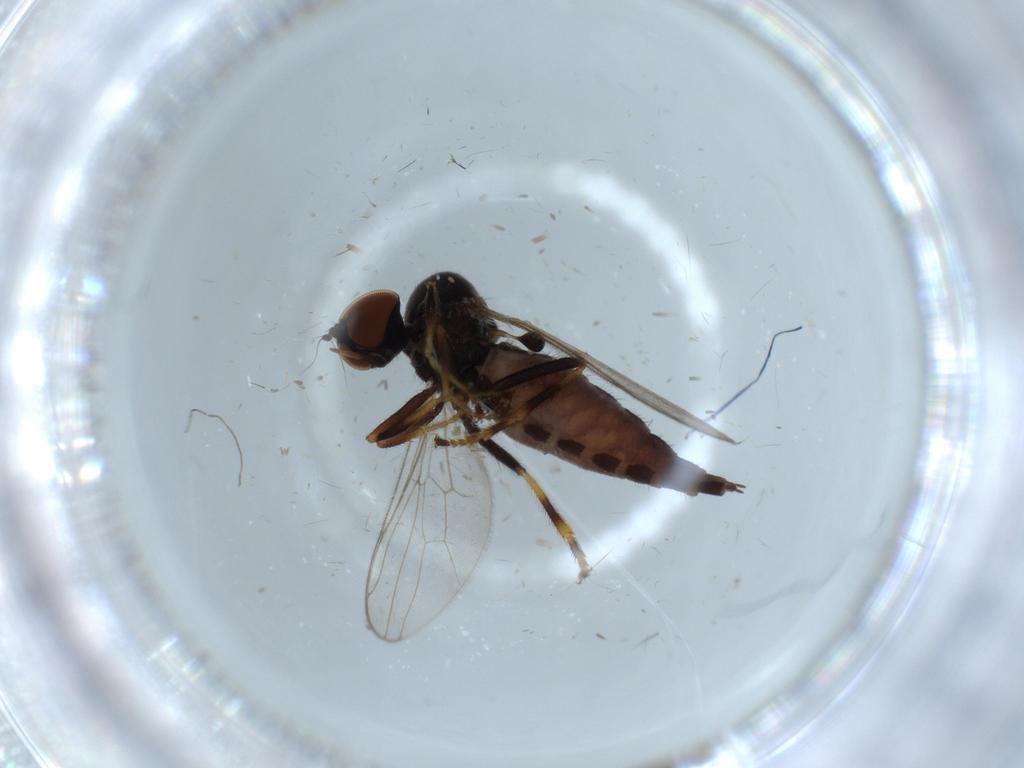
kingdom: Animalia
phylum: Arthropoda
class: Insecta
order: Diptera
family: Hybotidae
